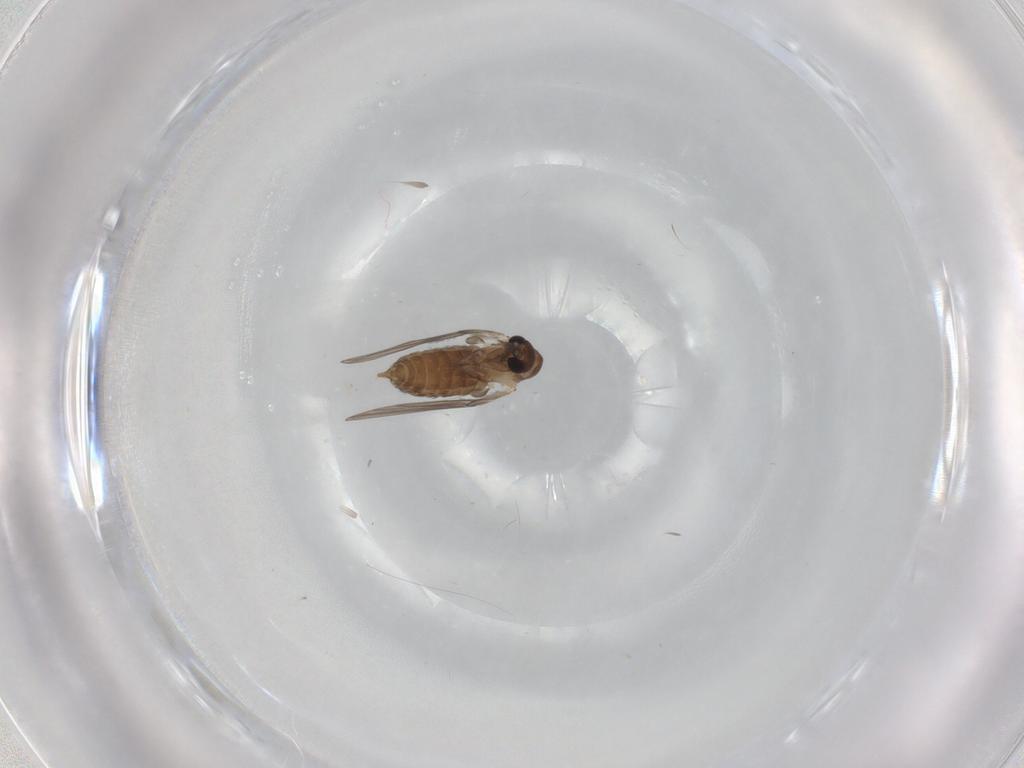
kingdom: Animalia
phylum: Arthropoda
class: Insecta
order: Diptera
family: Psychodidae
